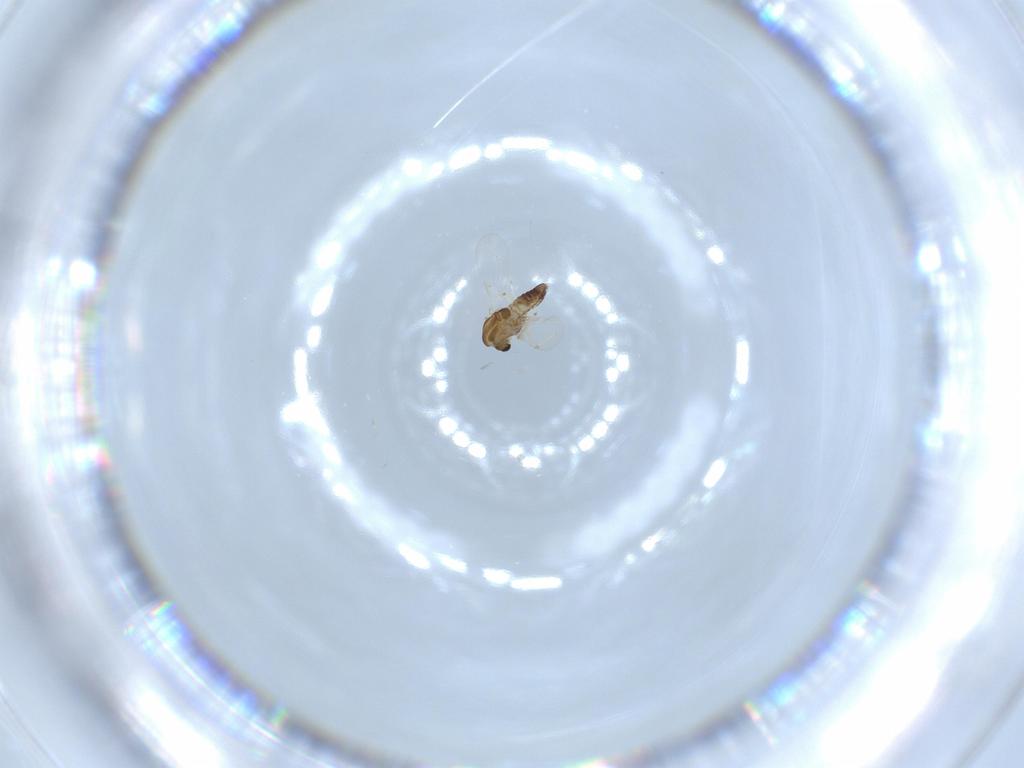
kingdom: Animalia
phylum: Arthropoda
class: Insecta
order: Diptera
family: Chironomidae
